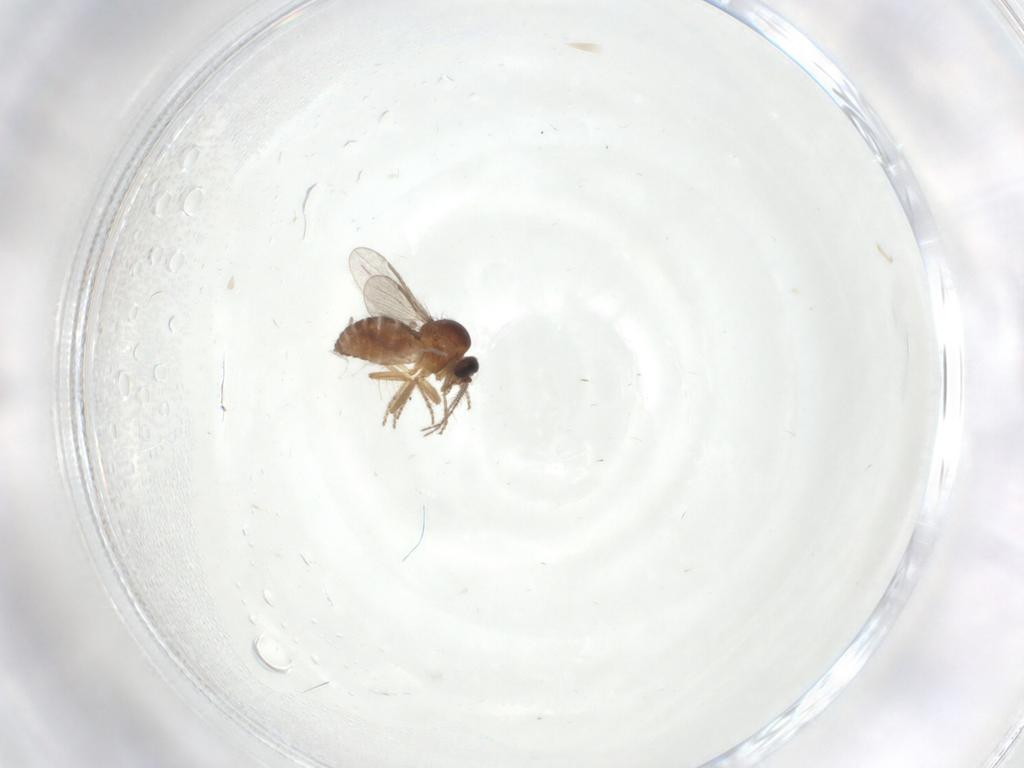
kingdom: Animalia
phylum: Arthropoda
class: Insecta
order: Diptera
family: Ceratopogonidae
